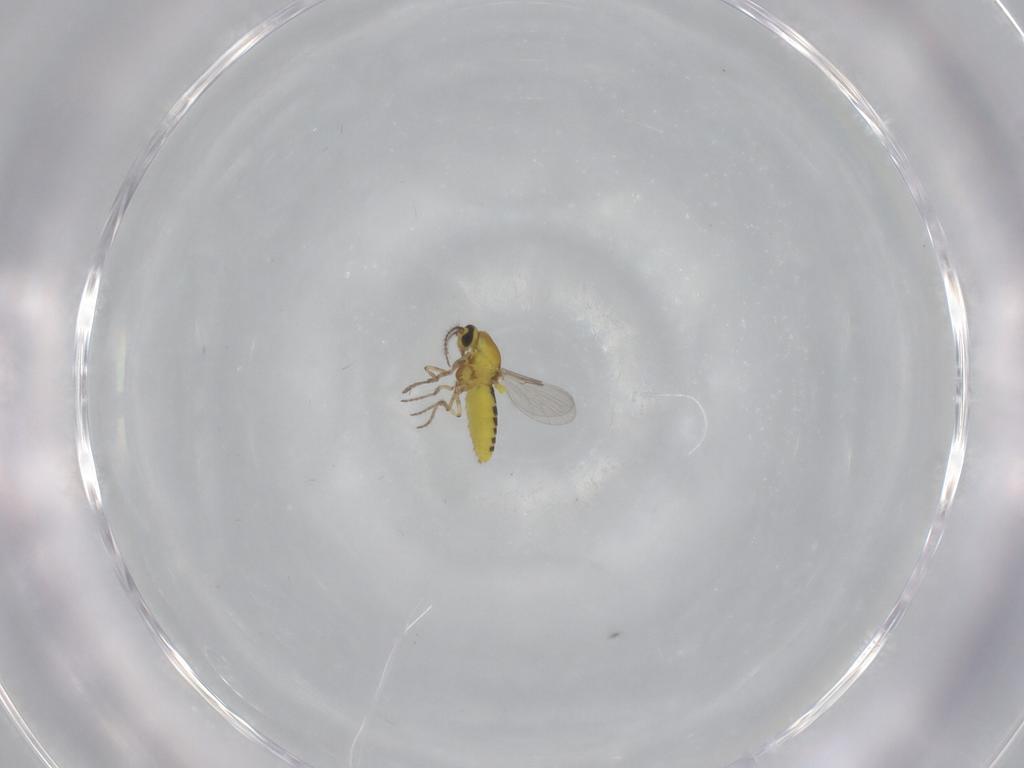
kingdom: Animalia
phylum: Arthropoda
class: Insecta
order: Diptera
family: Ceratopogonidae
